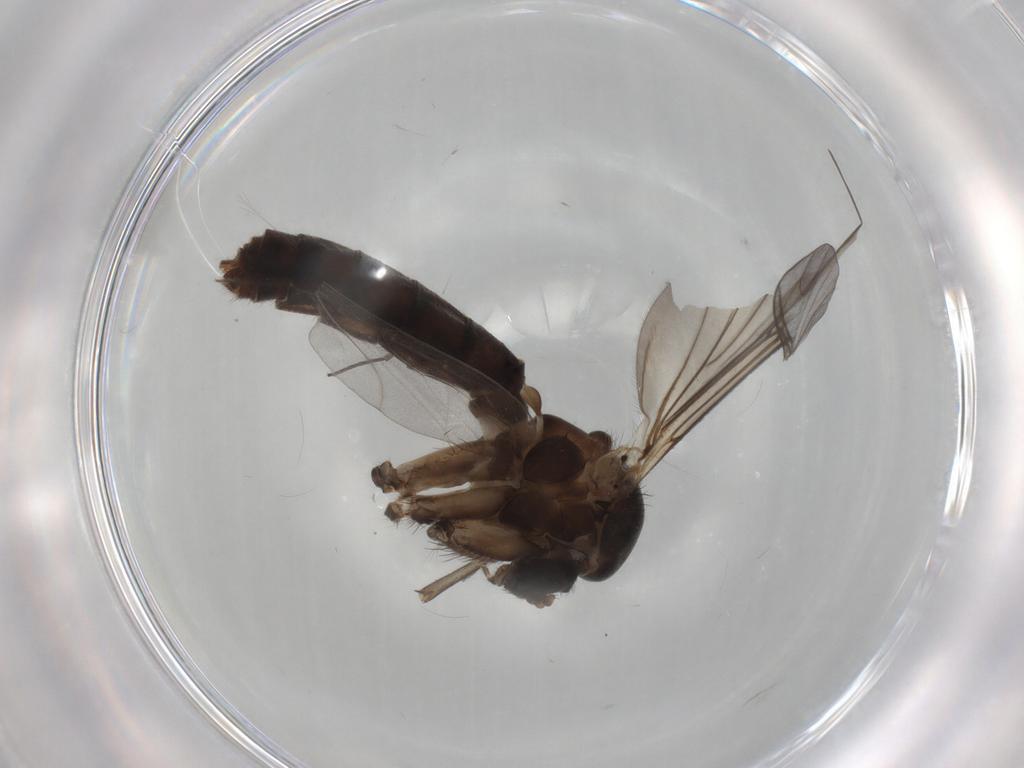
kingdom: Animalia
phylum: Arthropoda
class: Insecta
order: Diptera
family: Mycetophilidae
